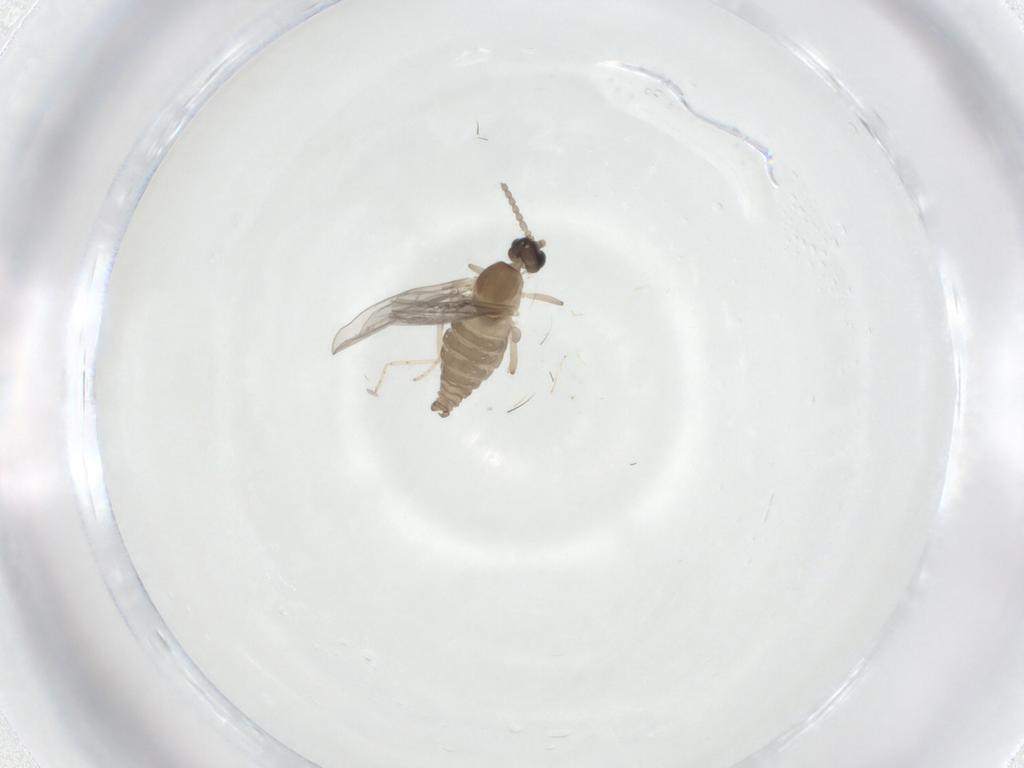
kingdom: Animalia
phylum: Arthropoda
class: Insecta
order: Diptera
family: Cecidomyiidae
